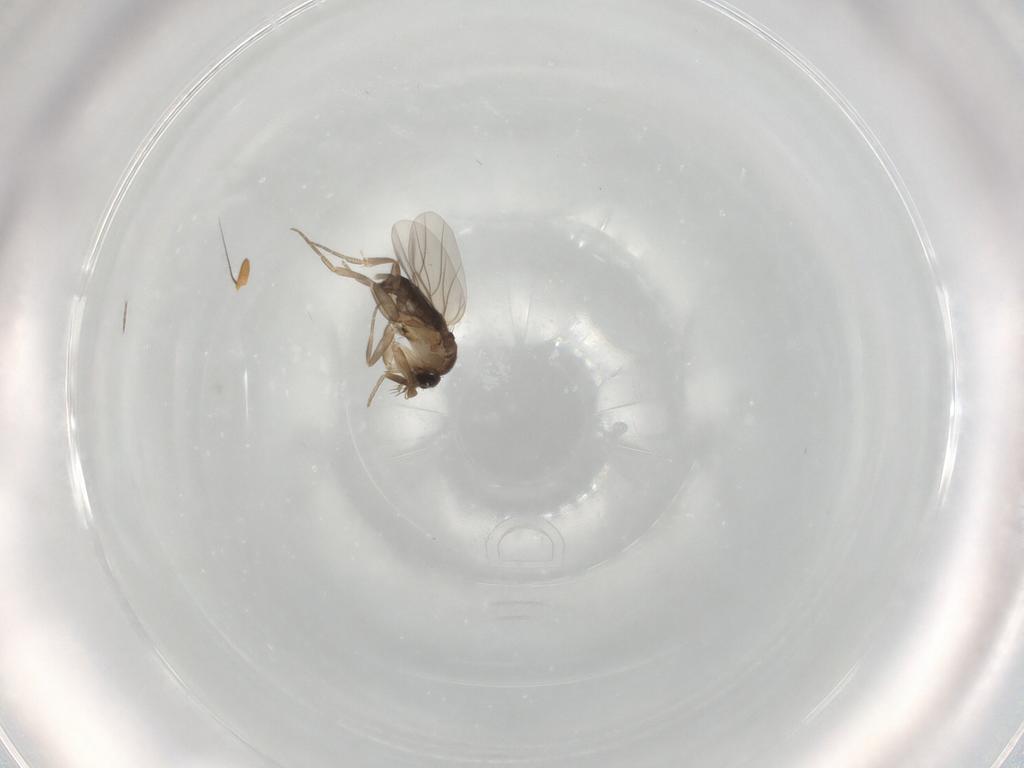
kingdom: Animalia
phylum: Arthropoda
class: Insecta
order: Diptera
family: Phoridae
